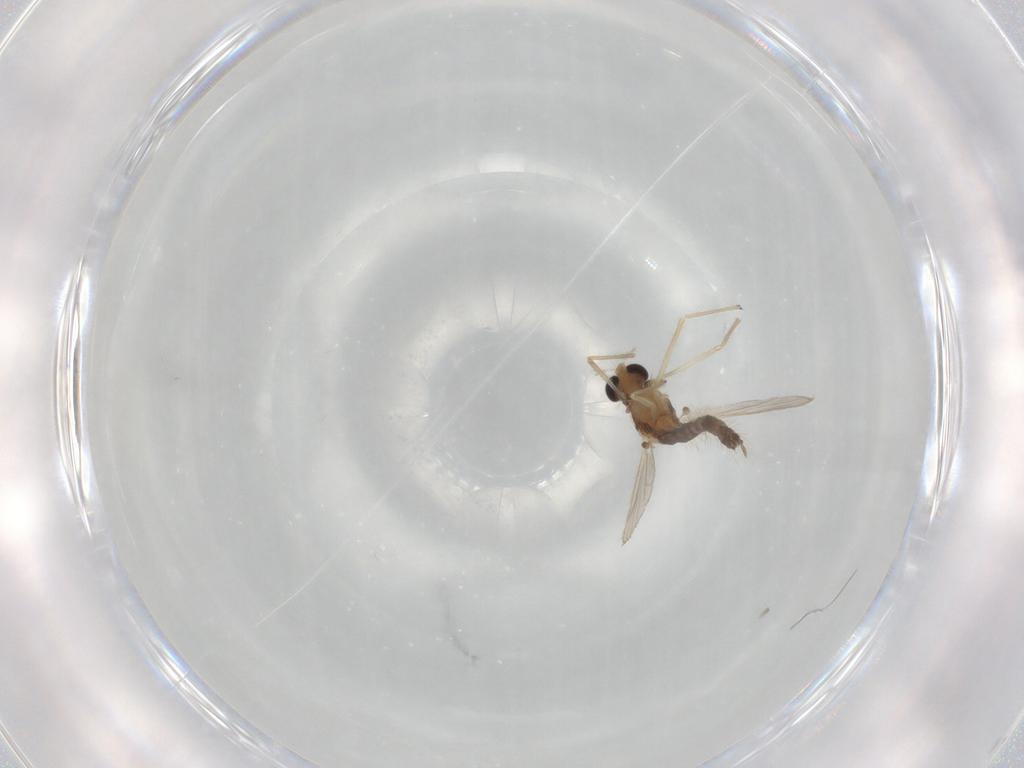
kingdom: Animalia
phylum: Arthropoda
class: Insecta
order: Diptera
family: Chironomidae
